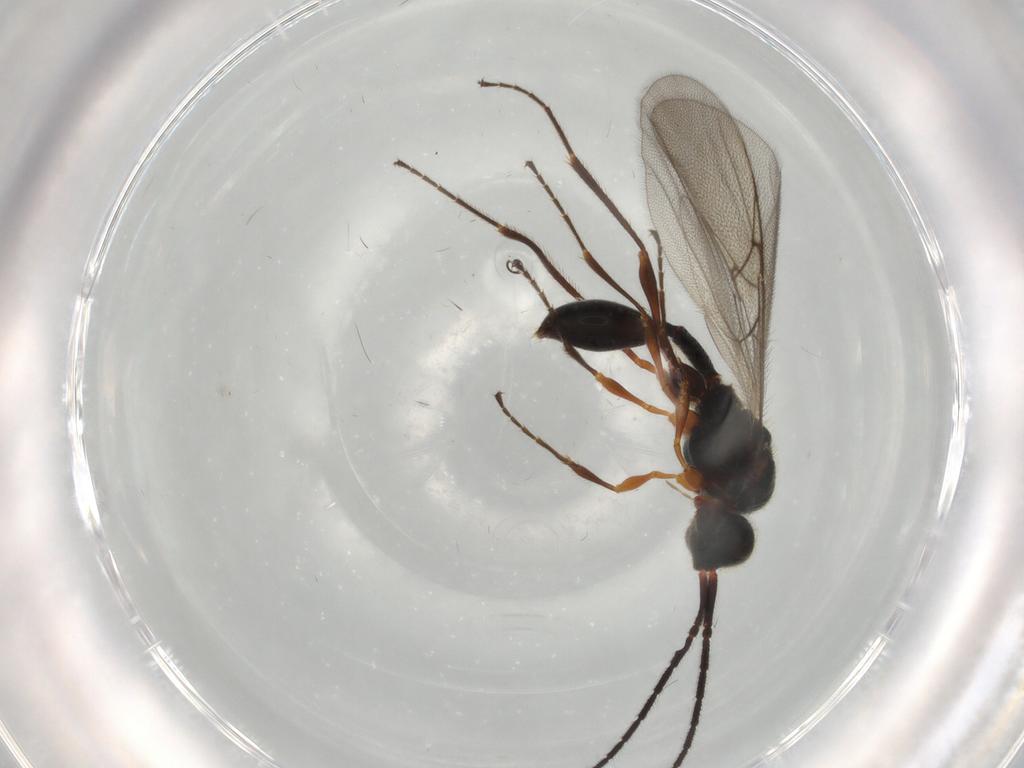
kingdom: Animalia
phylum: Arthropoda
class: Insecta
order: Hymenoptera
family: Diapriidae
